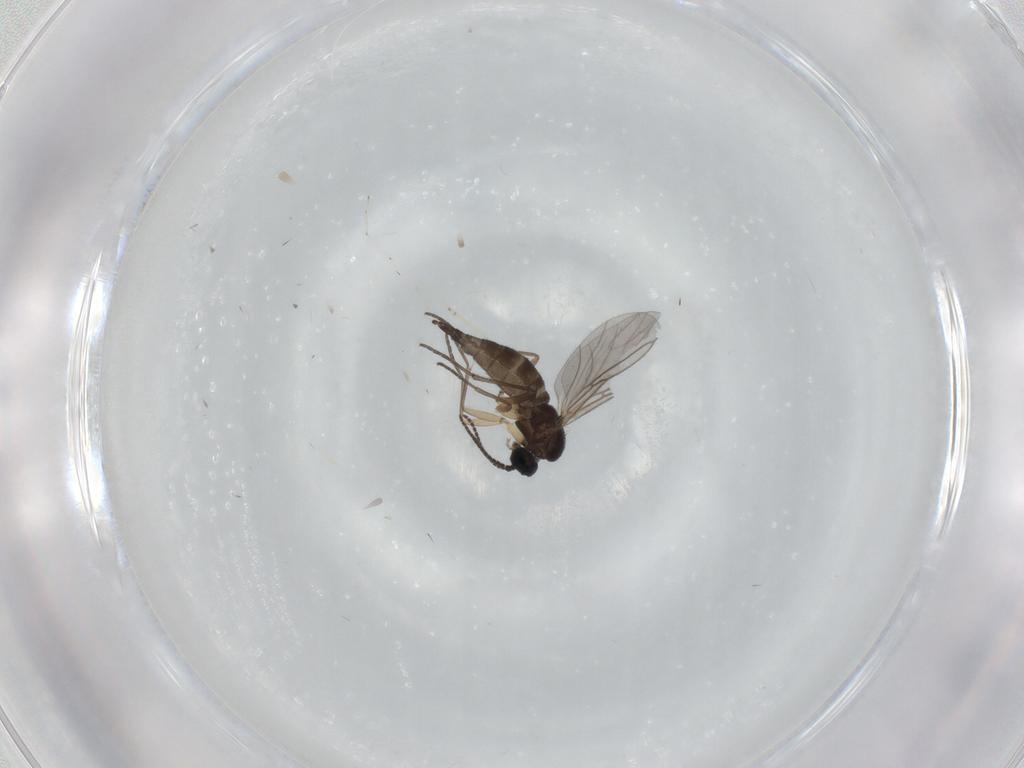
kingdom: Animalia
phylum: Arthropoda
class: Insecta
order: Diptera
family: Sciaridae
